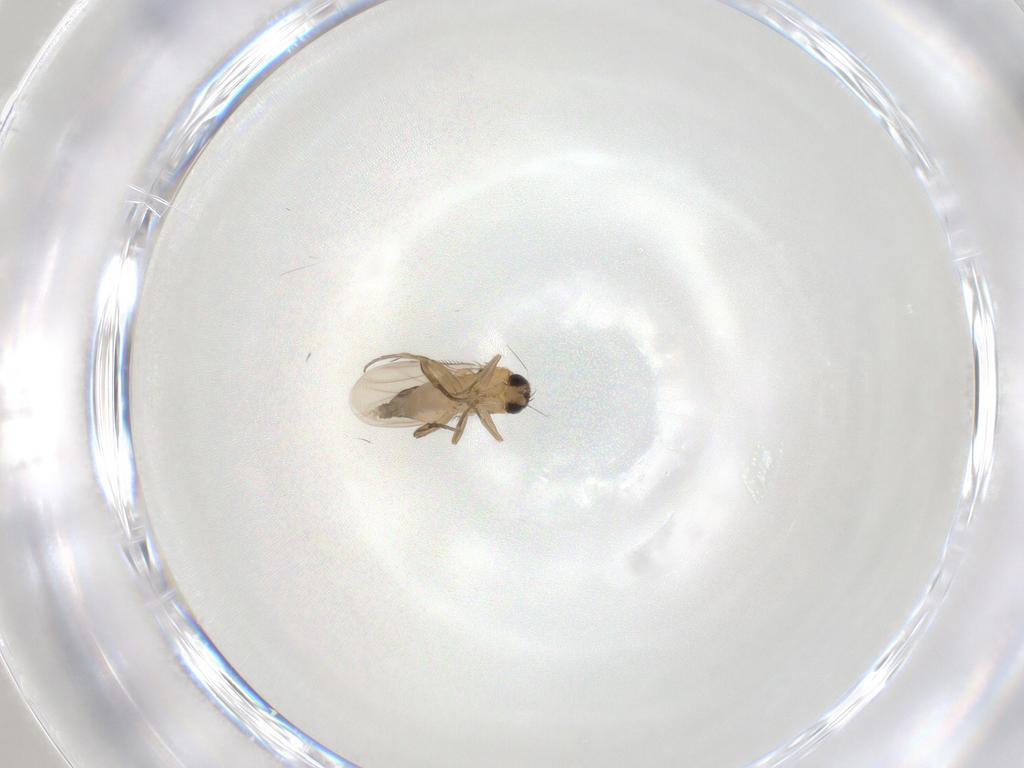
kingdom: Animalia
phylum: Arthropoda
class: Insecta
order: Diptera
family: Phoridae
